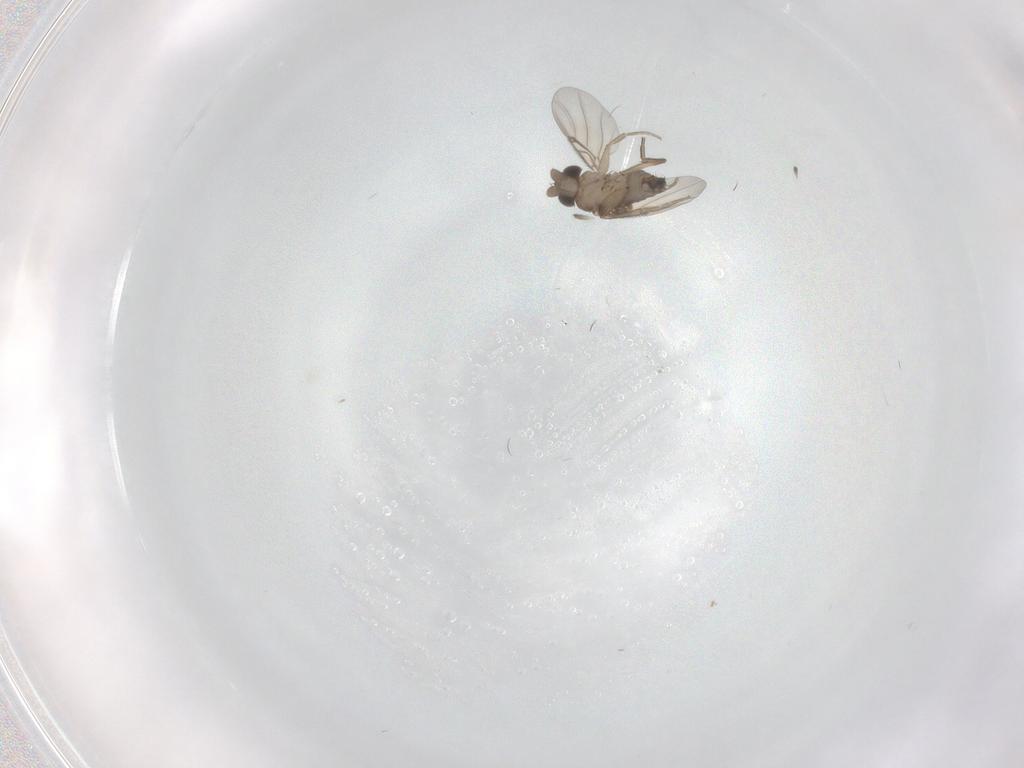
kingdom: Animalia
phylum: Arthropoda
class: Insecta
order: Diptera
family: Phoridae
